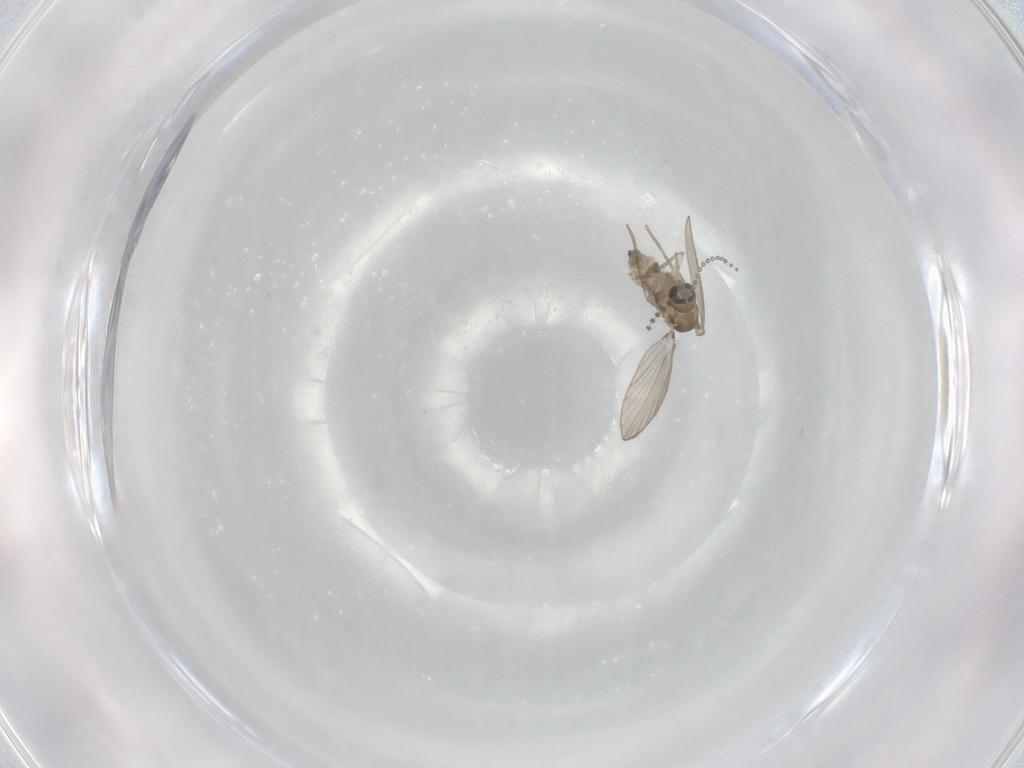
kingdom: Animalia
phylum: Arthropoda
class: Insecta
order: Diptera
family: Psychodidae
